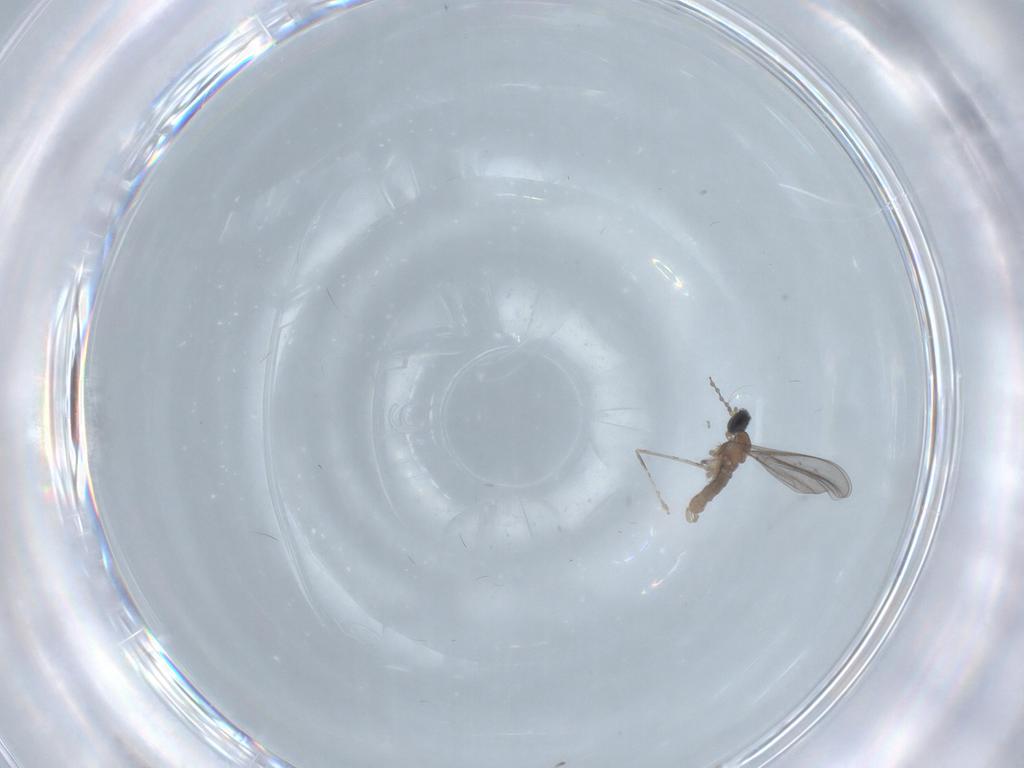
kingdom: Animalia
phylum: Arthropoda
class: Insecta
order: Diptera
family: Cecidomyiidae
